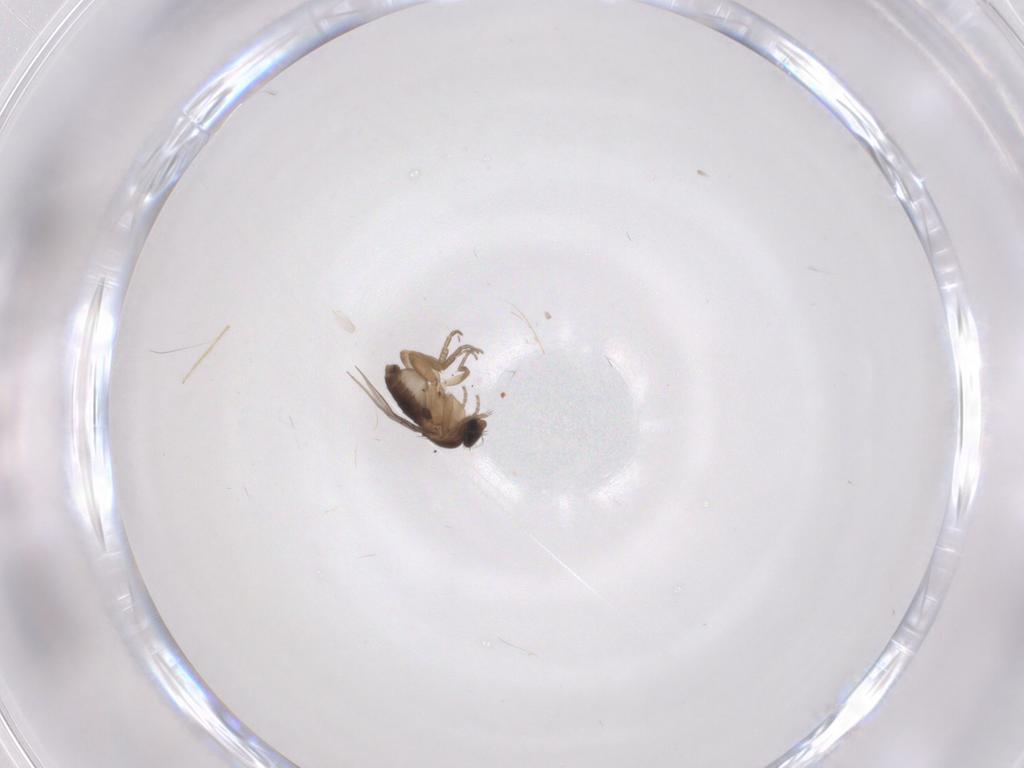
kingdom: Animalia
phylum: Arthropoda
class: Insecta
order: Diptera
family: Phoridae
